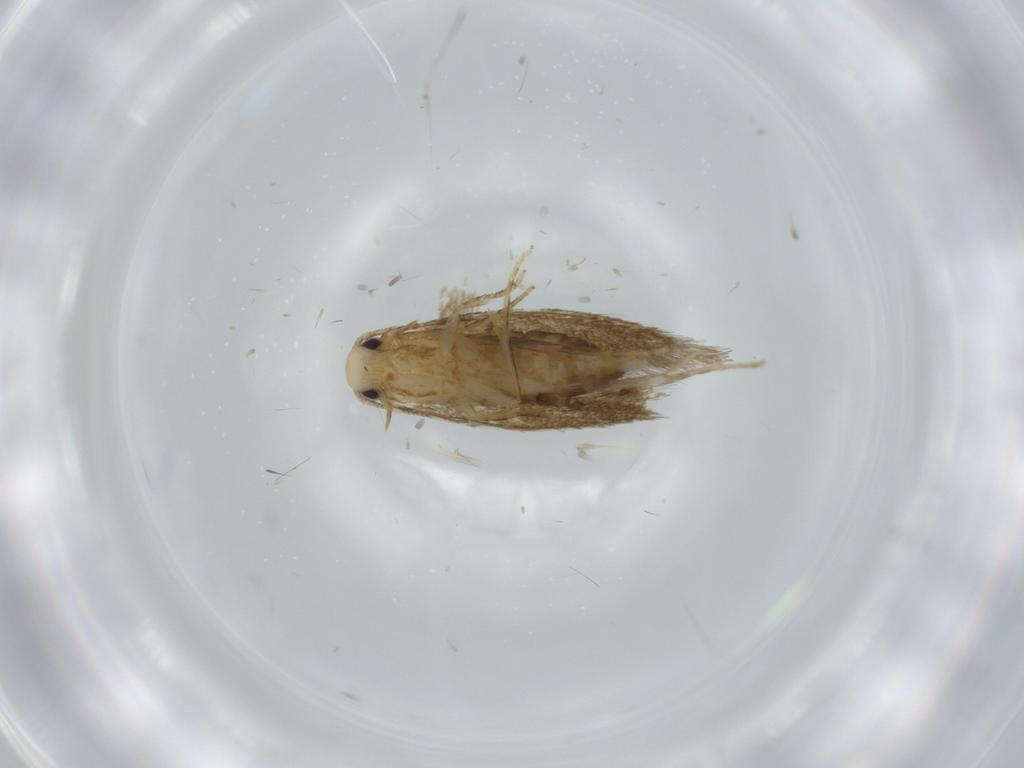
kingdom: Animalia
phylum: Arthropoda
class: Insecta
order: Lepidoptera
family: Tineidae
